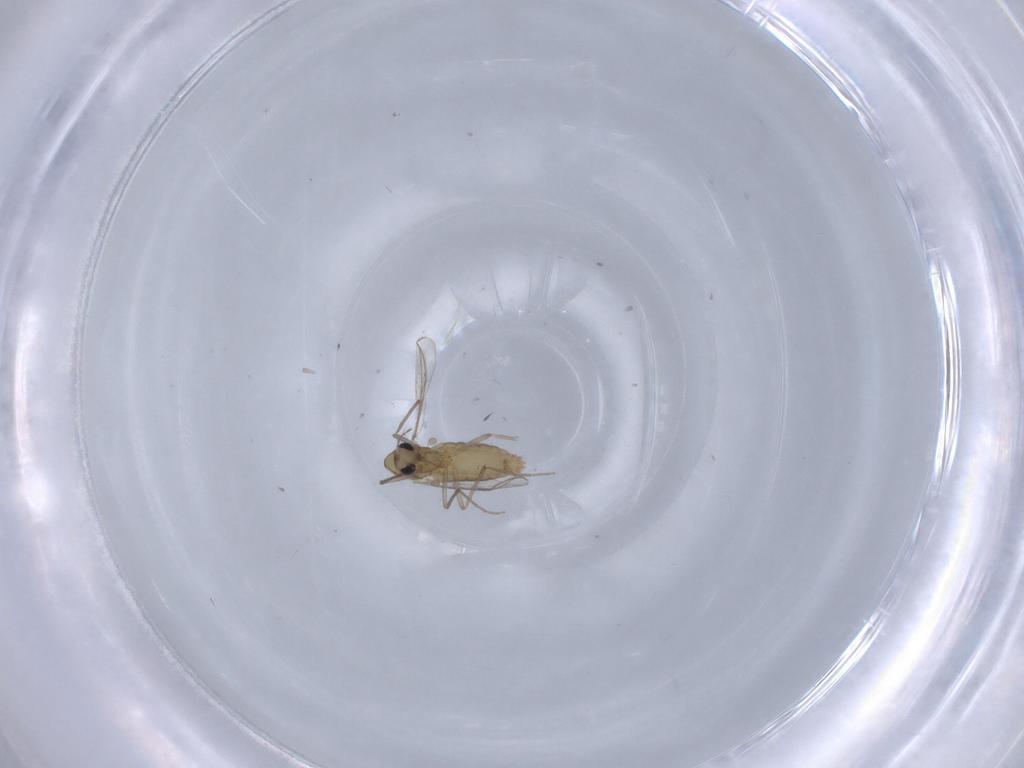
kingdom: Animalia
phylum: Arthropoda
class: Insecta
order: Diptera
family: Chironomidae
